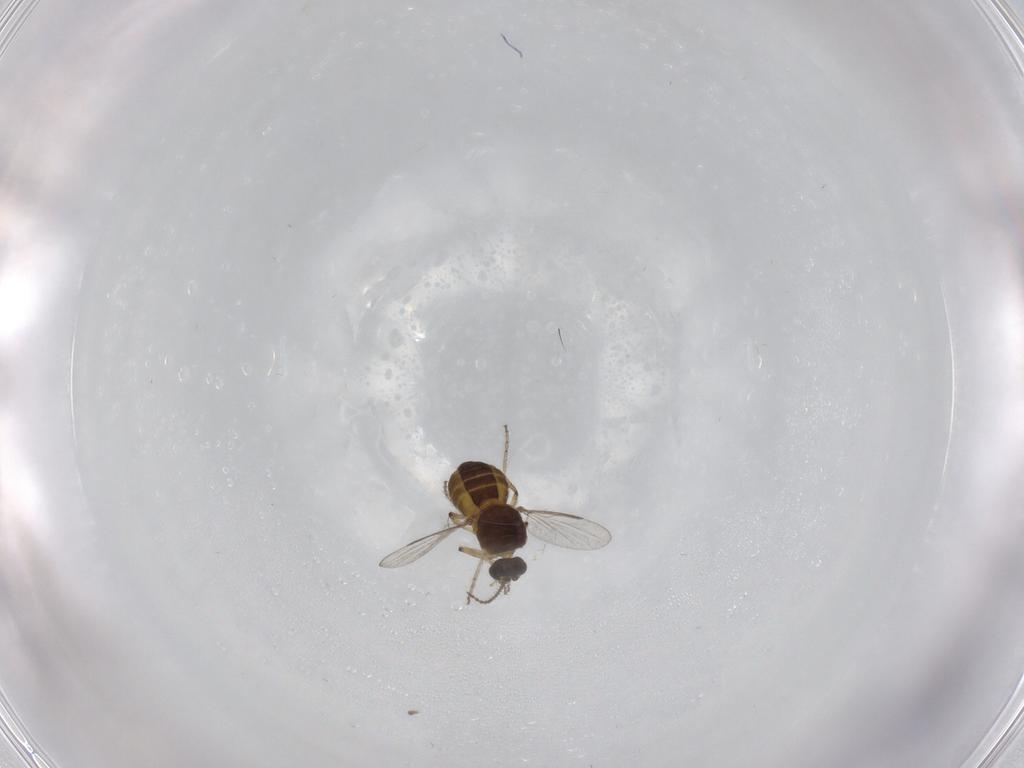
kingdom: Animalia
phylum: Arthropoda
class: Insecta
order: Diptera
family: Ceratopogonidae
